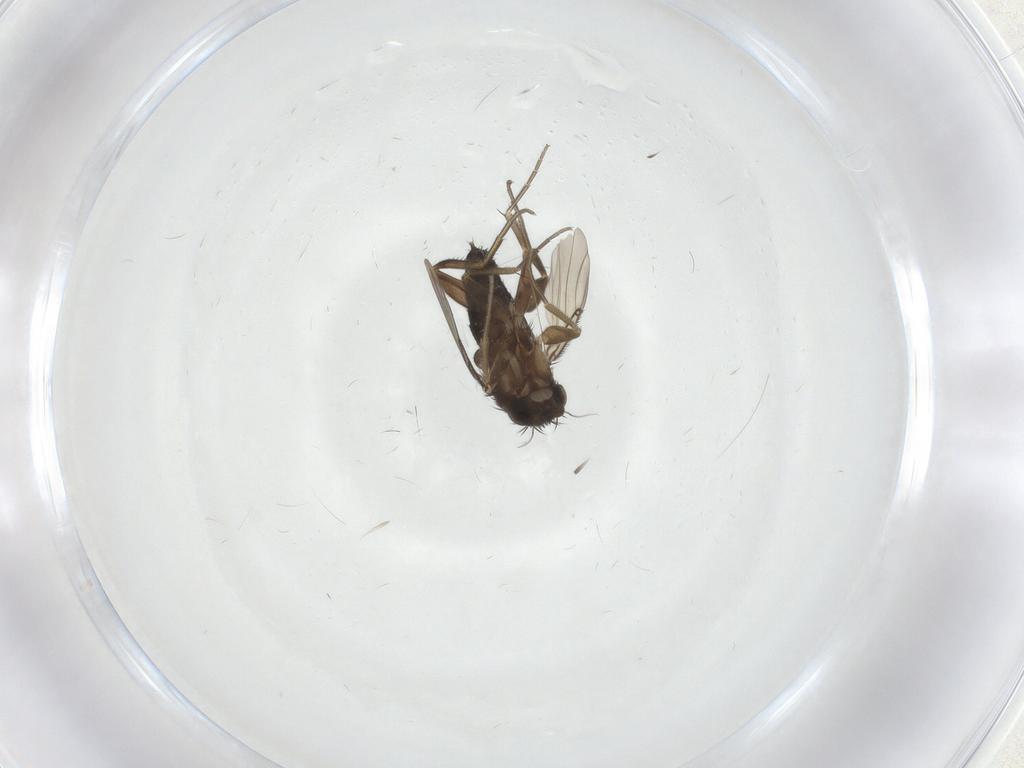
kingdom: Animalia
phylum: Arthropoda
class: Insecta
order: Diptera
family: Phoridae
